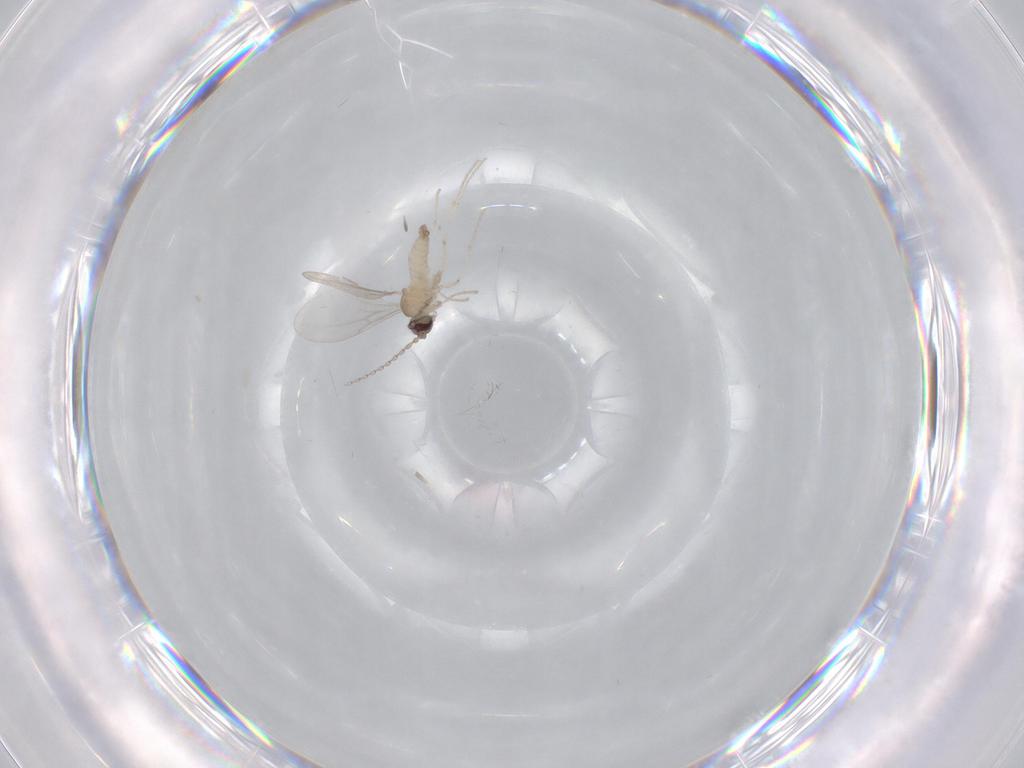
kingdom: Animalia
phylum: Arthropoda
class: Insecta
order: Diptera
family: Cecidomyiidae
